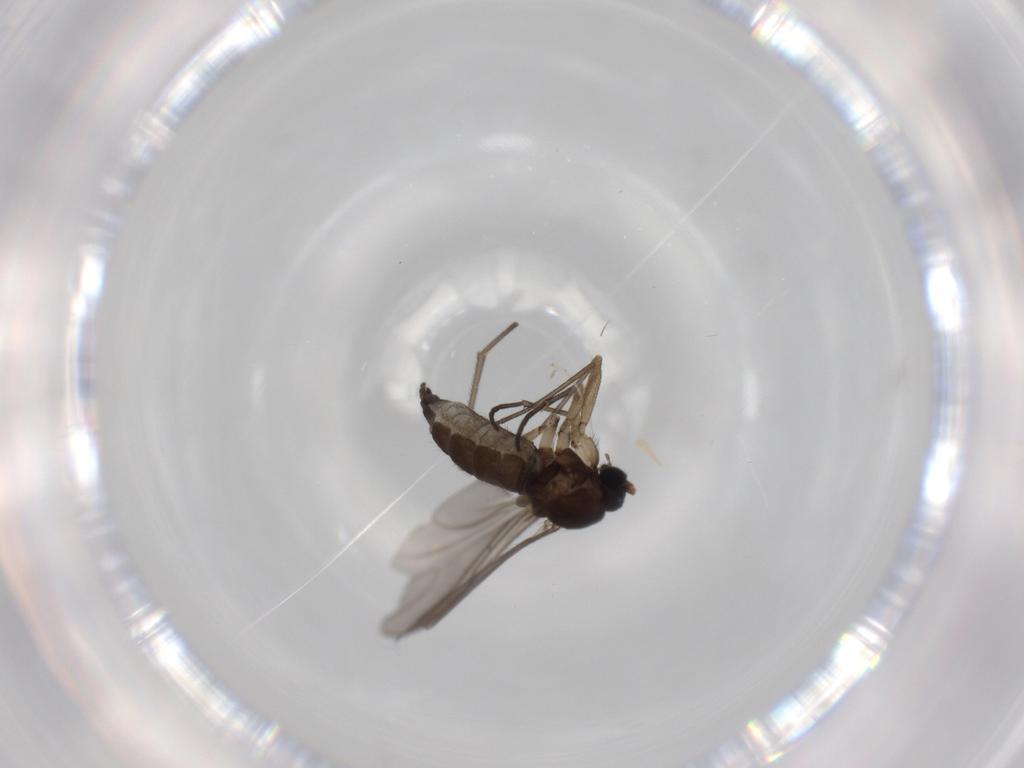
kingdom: Animalia
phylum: Arthropoda
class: Insecta
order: Diptera
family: Sciaridae
